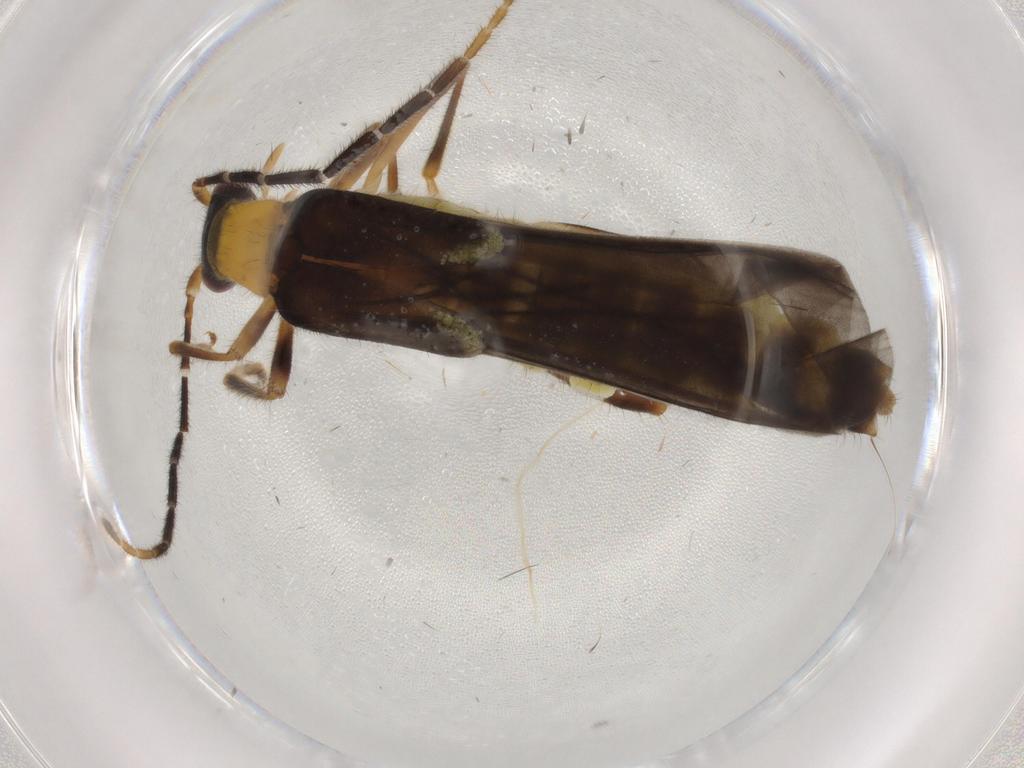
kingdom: Animalia
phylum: Arthropoda
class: Insecta
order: Coleoptera
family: Cantharidae
